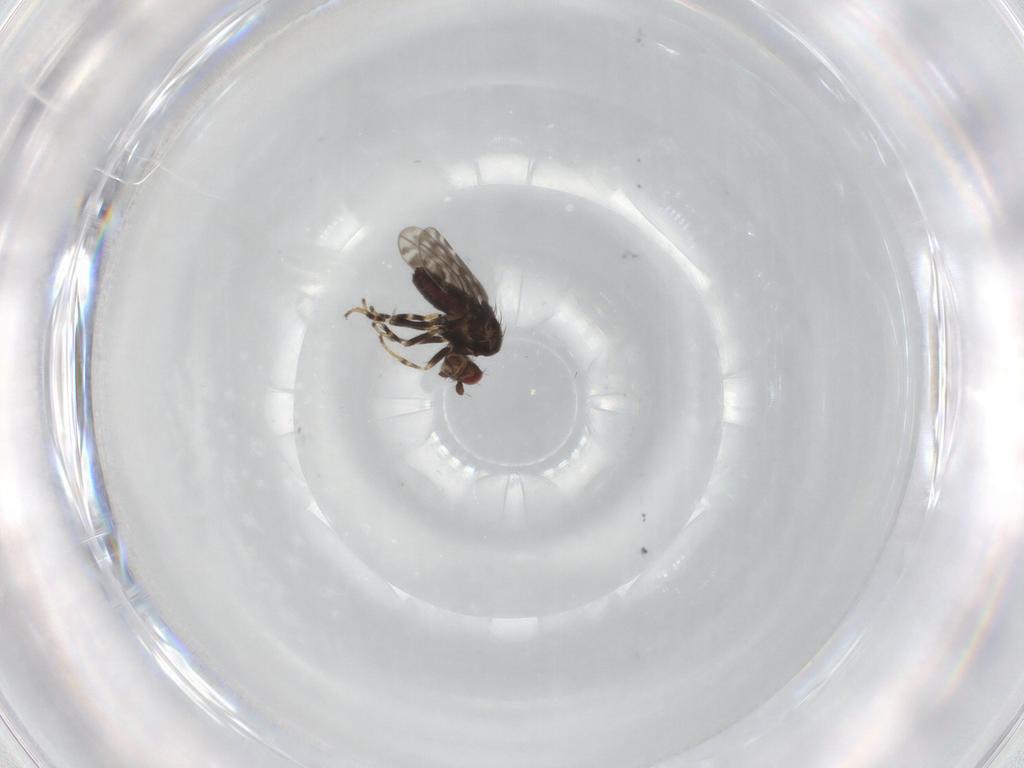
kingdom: Animalia
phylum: Arthropoda
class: Insecta
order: Diptera
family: Sphaeroceridae
